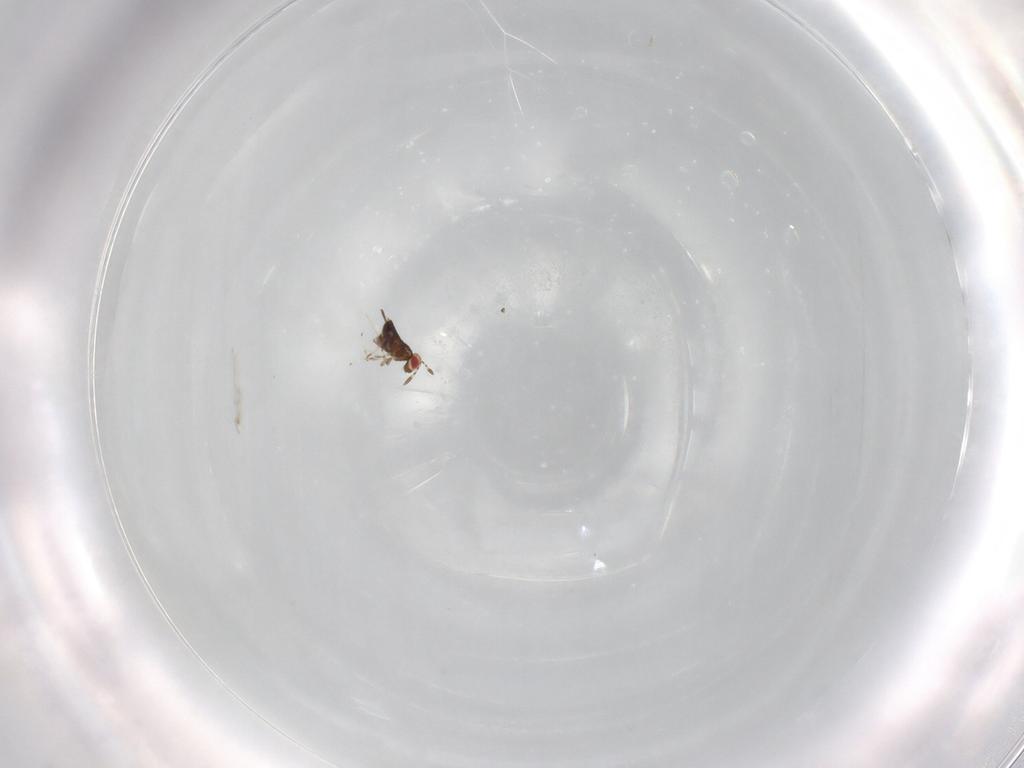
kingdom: Animalia
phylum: Arthropoda
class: Insecta
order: Hymenoptera
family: Azotidae
